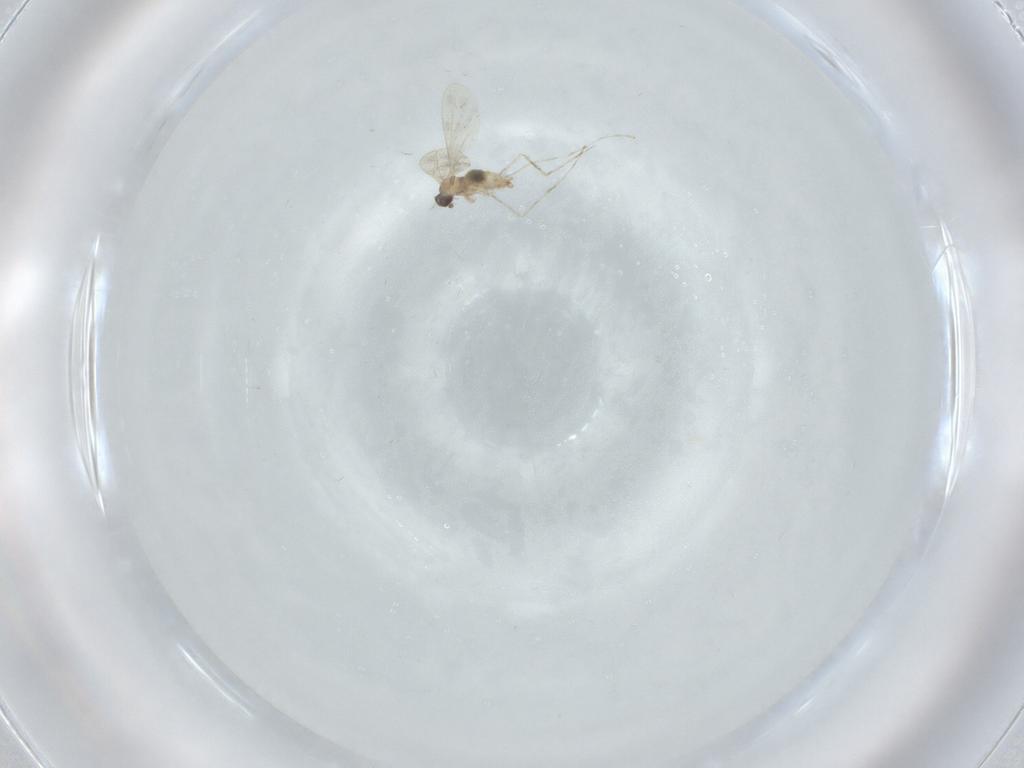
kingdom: Animalia
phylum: Arthropoda
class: Insecta
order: Diptera
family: Cecidomyiidae
